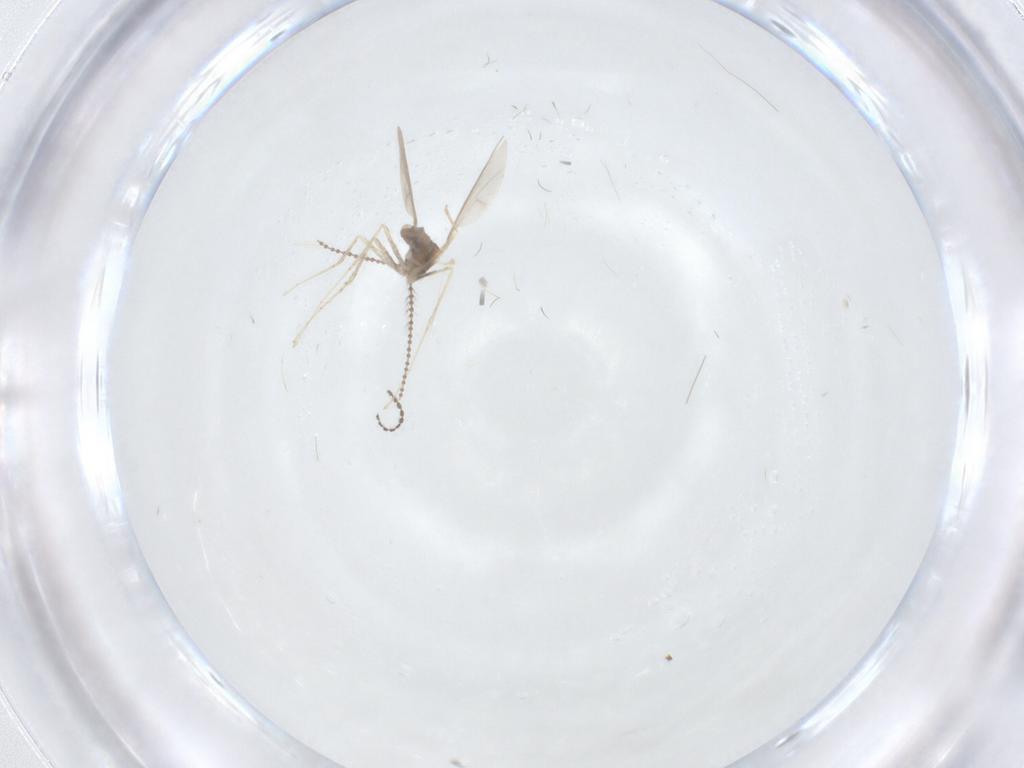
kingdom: Animalia
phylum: Arthropoda
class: Insecta
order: Diptera
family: Cecidomyiidae
